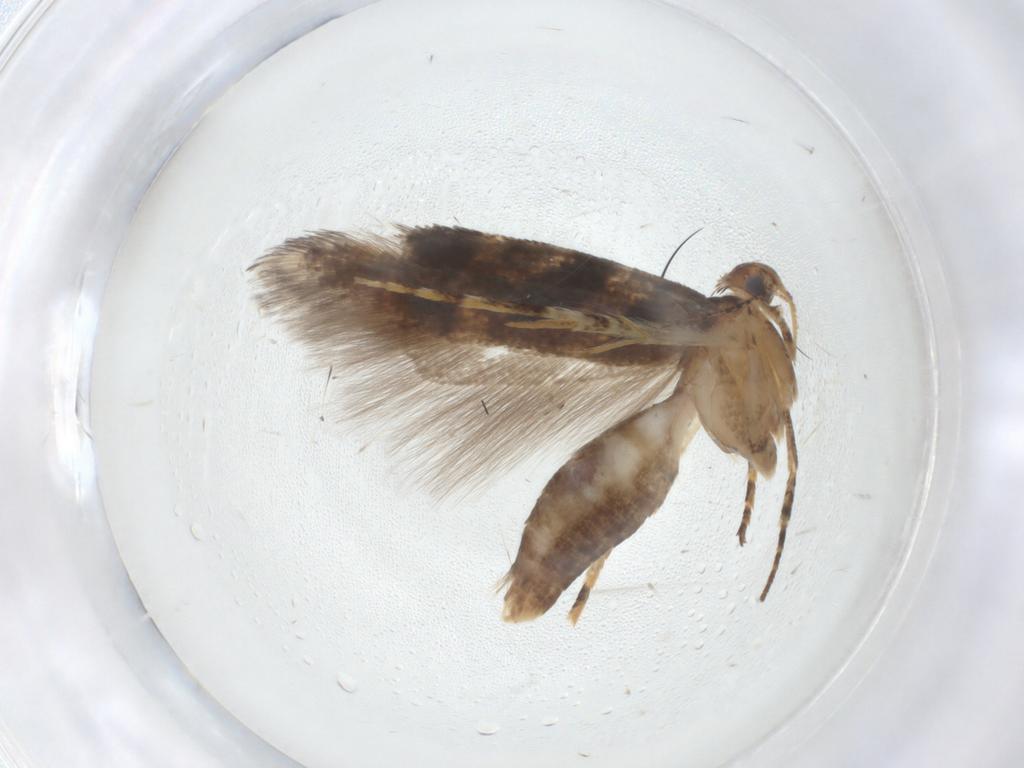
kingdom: Animalia
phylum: Arthropoda
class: Insecta
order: Lepidoptera
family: Gelechiidae
